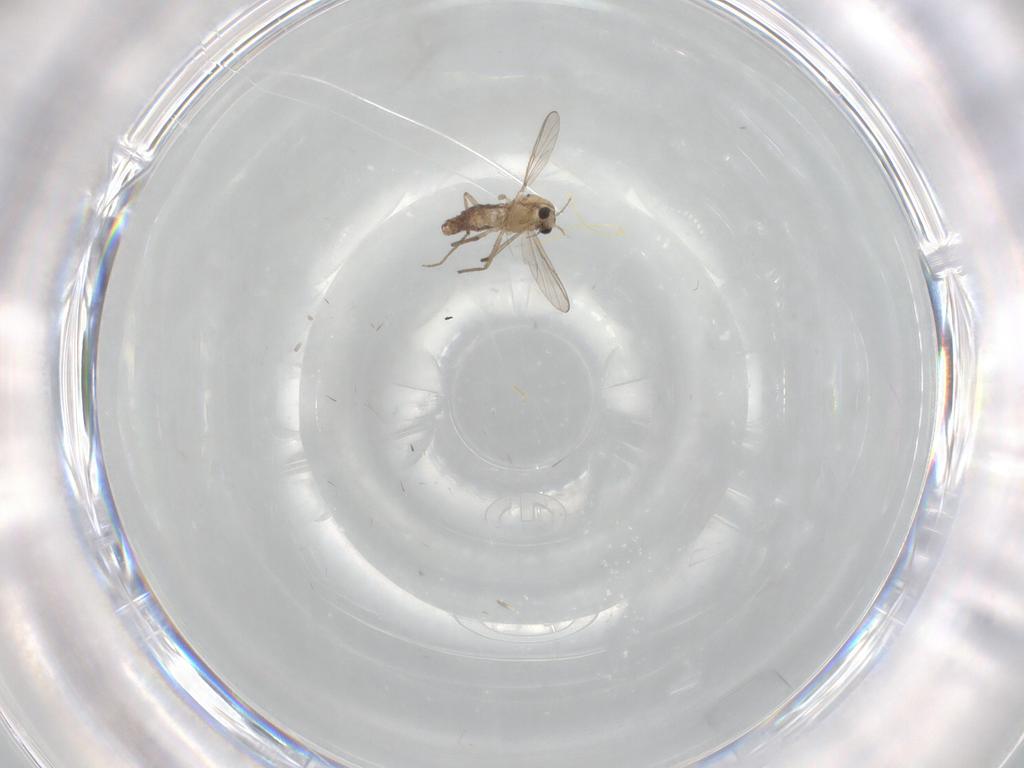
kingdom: Animalia
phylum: Arthropoda
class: Insecta
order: Diptera
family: Chironomidae
